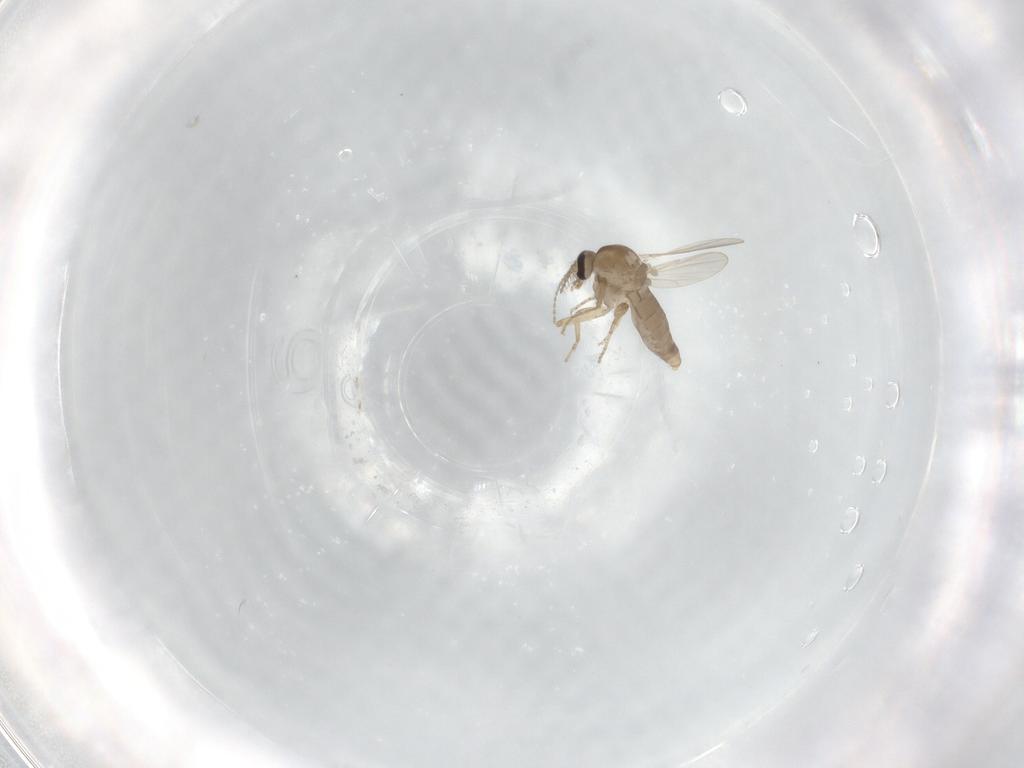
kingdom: Animalia
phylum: Arthropoda
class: Insecta
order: Diptera
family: Ceratopogonidae
